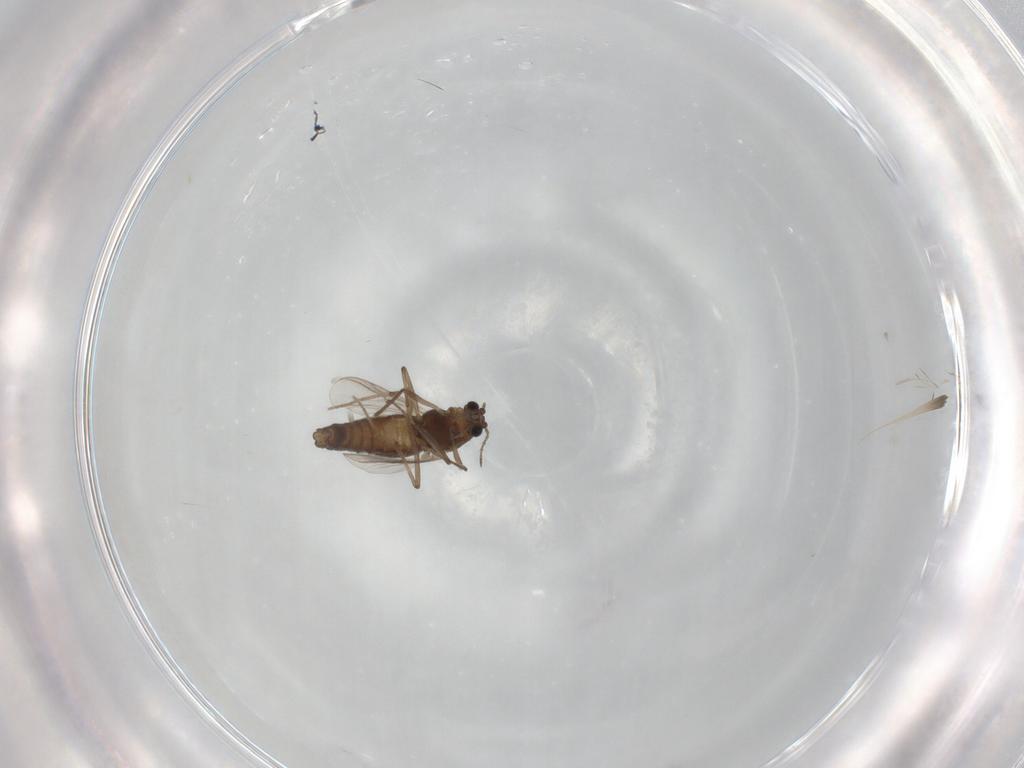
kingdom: Animalia
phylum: Arthropoda
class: Insecta
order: Diptera
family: Chironomidae
